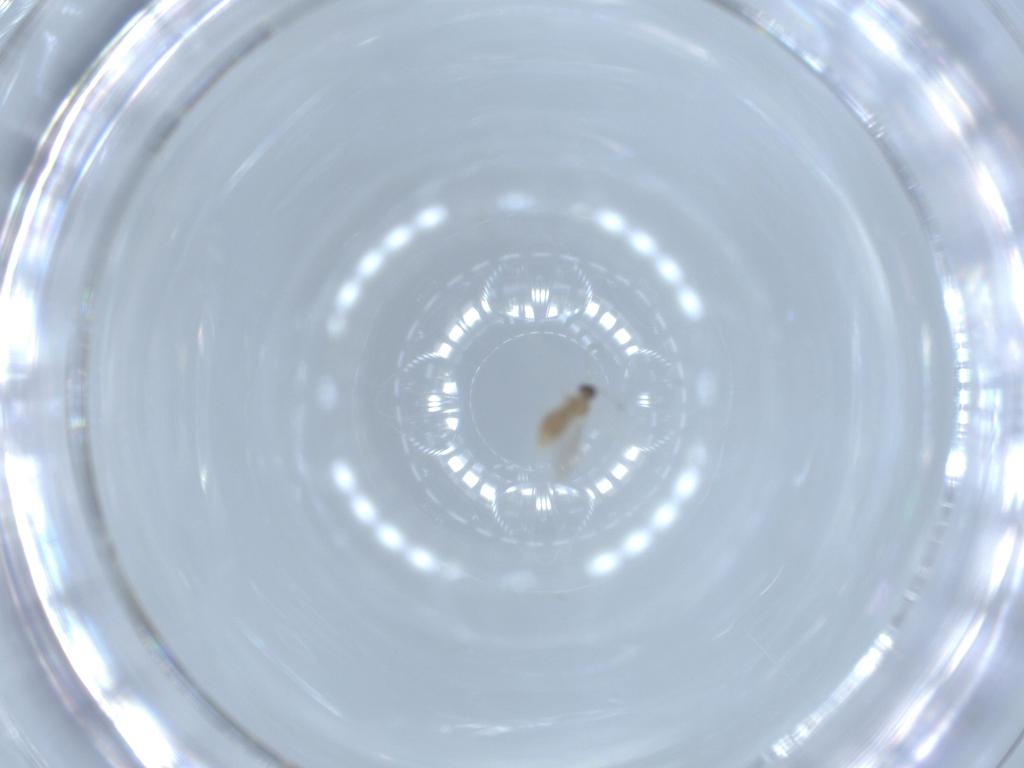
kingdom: Animalia
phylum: Arthropoda
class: Insecta
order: Diptera
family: Cecidomyiidae
